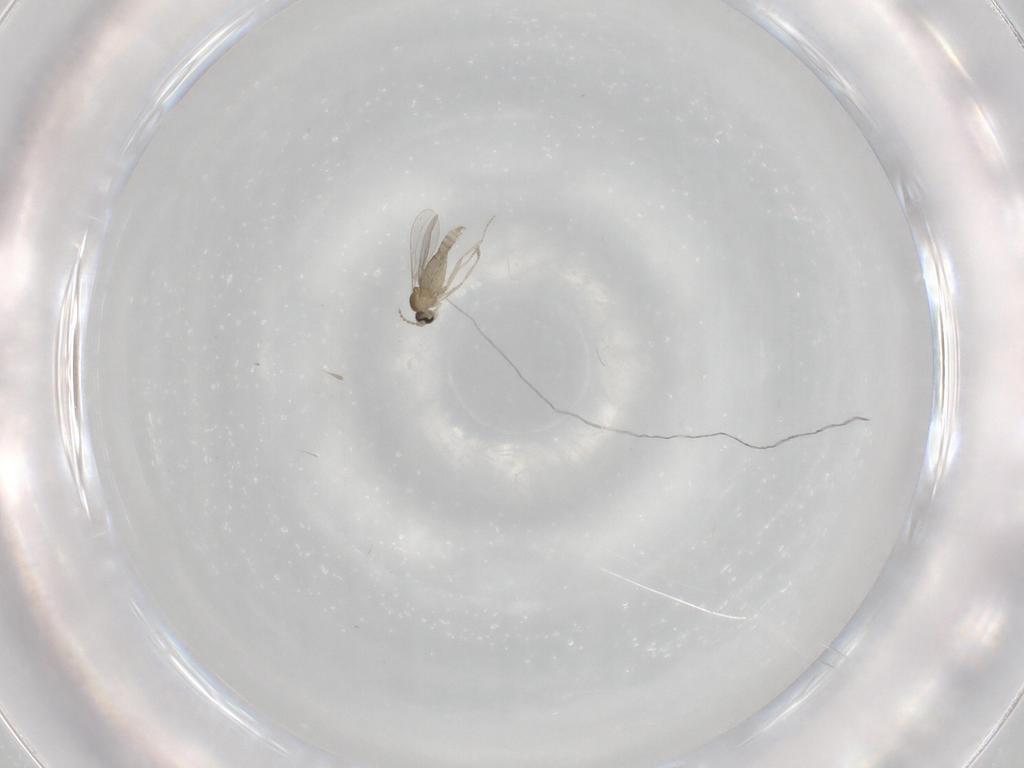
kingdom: Animalia
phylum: Arthropoda
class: Insecta
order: Diptera
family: Cecidomyiidae
